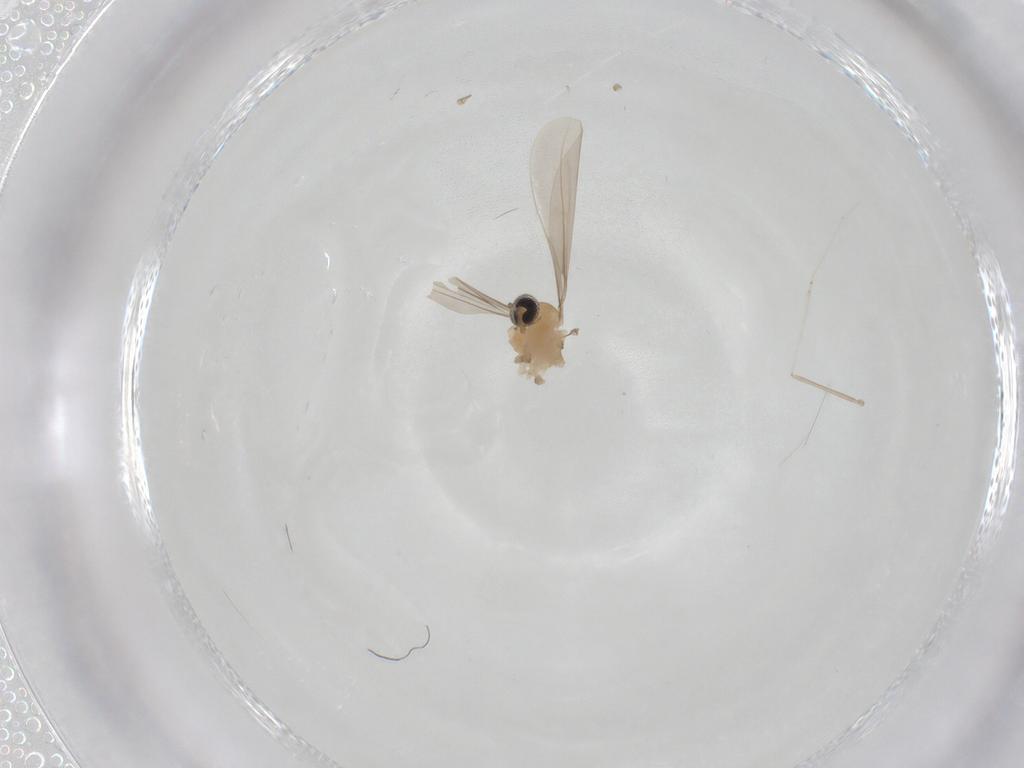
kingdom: Animalia
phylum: Arthropoda
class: Insecta
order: Diptera
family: Cecidomyiidae
